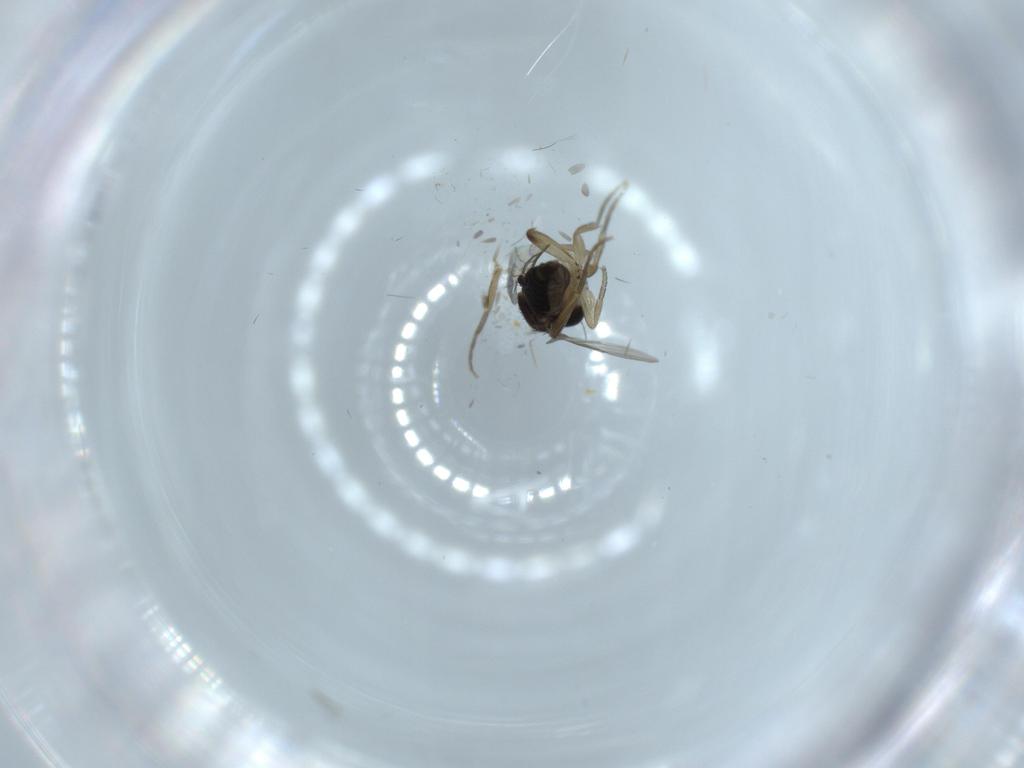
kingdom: Animalia
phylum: Arthropoda
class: Insecta
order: Diptera
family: Phoridae
